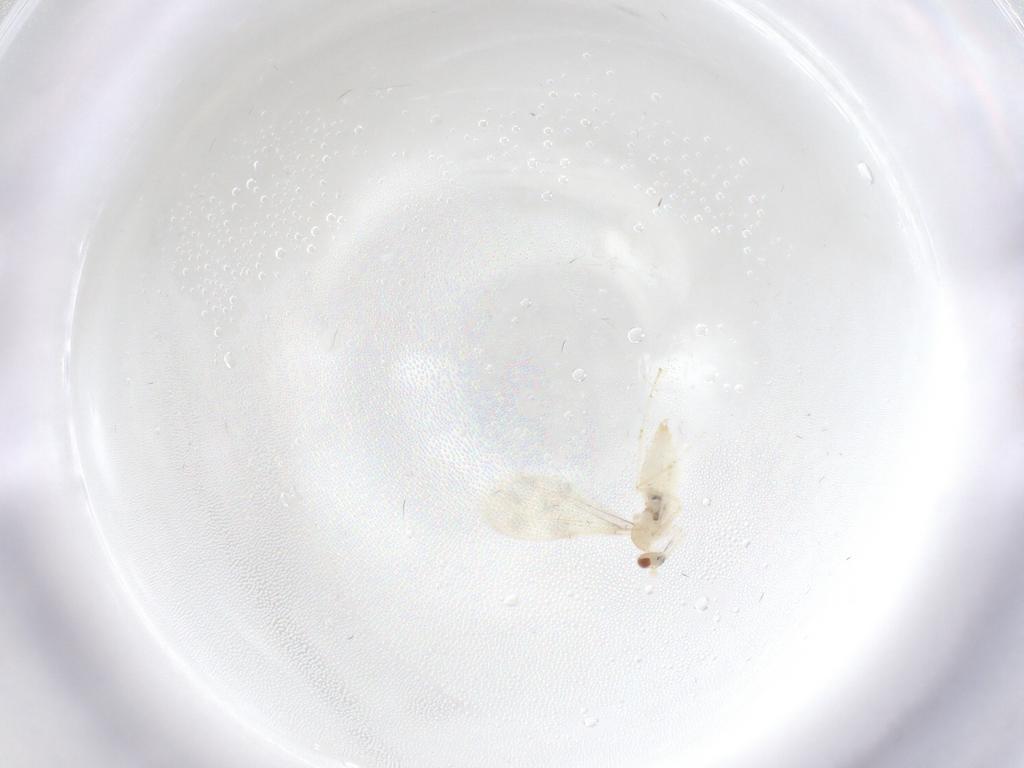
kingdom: Animalia
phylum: Arthropoda
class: Insecta
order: Diptera
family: Cecidomyiidae
